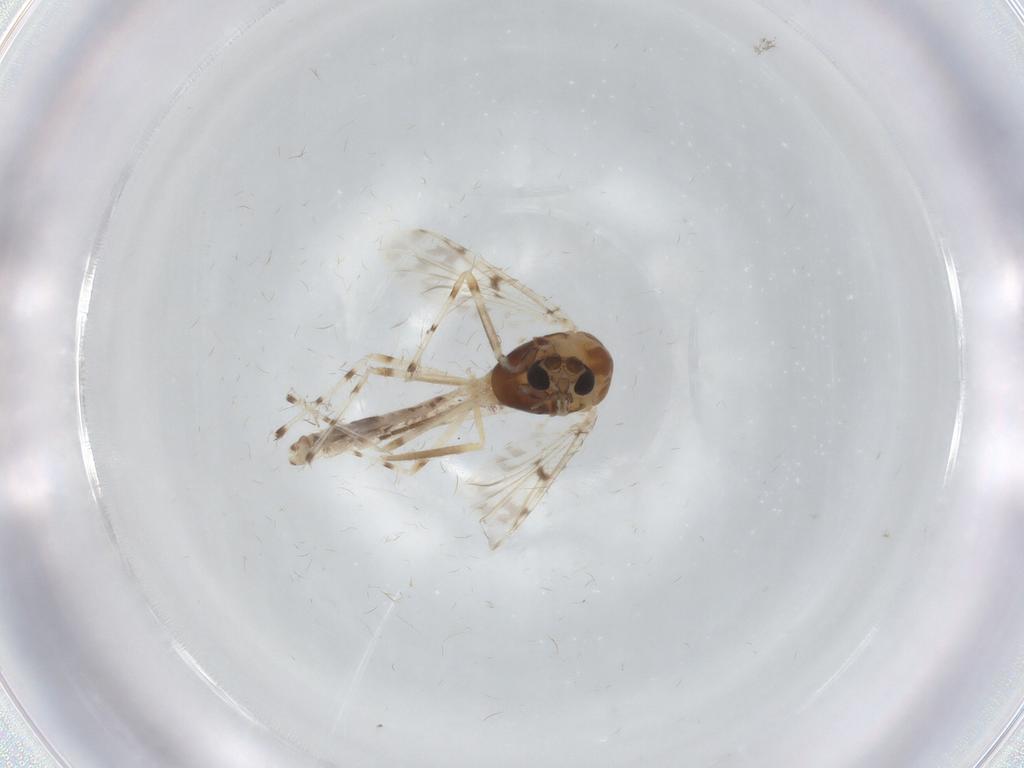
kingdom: Animalia
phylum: Arthropoda
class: Insecta
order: Diptera
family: Chironomidae
